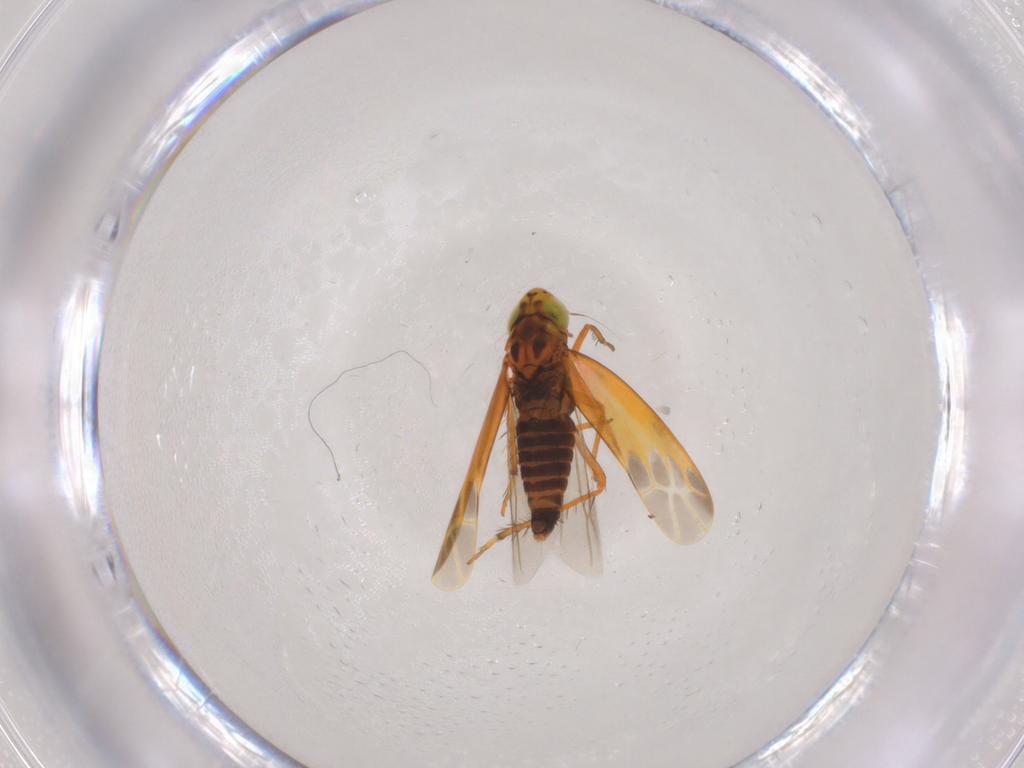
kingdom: Animalia
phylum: Arthropoda
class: Insecta
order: Hemiptera
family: Cicadellidae
